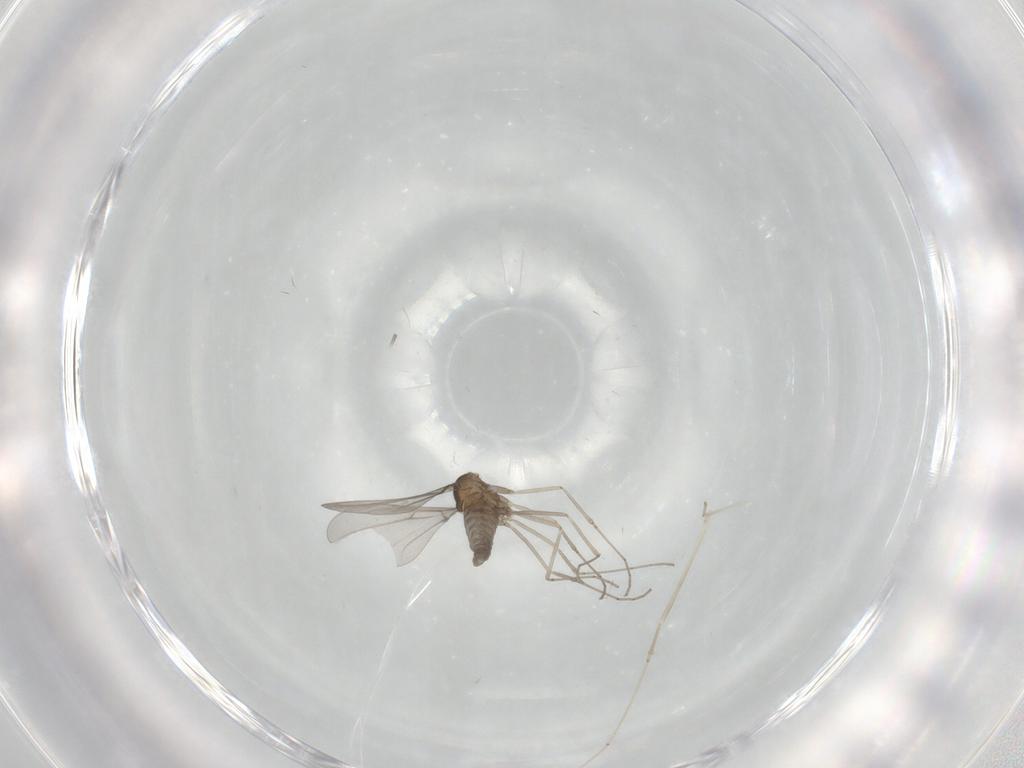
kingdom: Animalia
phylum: Arthropoda
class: Insecta
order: Diptera
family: Cecidomyiidae
